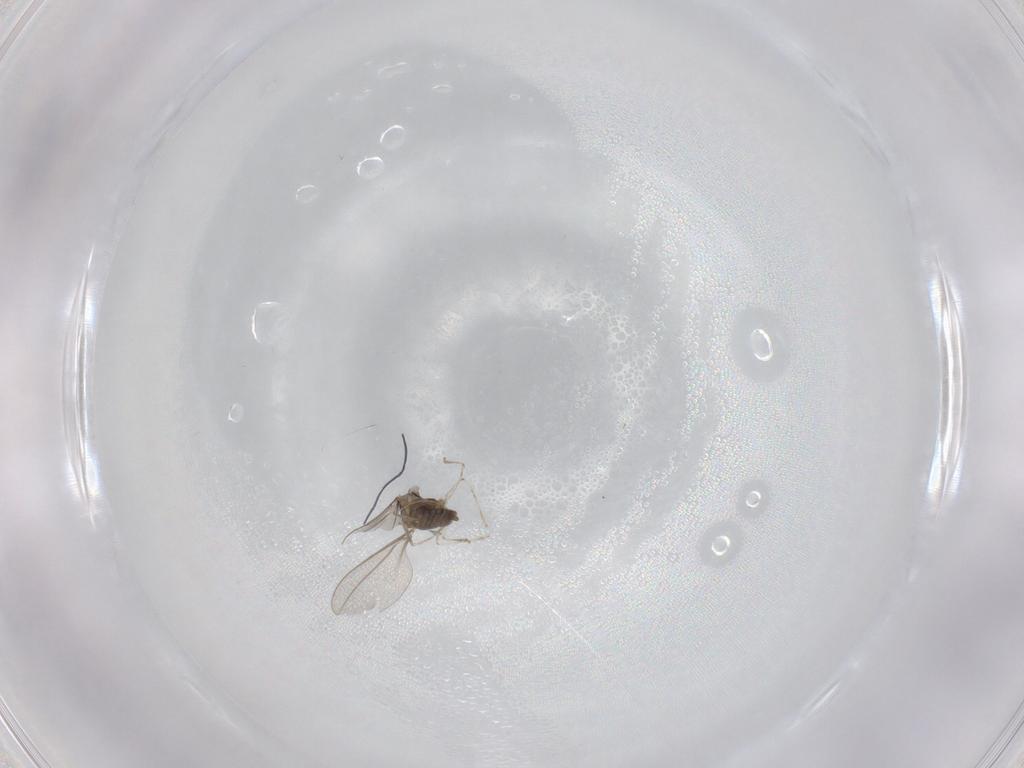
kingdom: Animalia
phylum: Arthropoda
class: Insecta
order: Diptera
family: Cecidomyiidae
